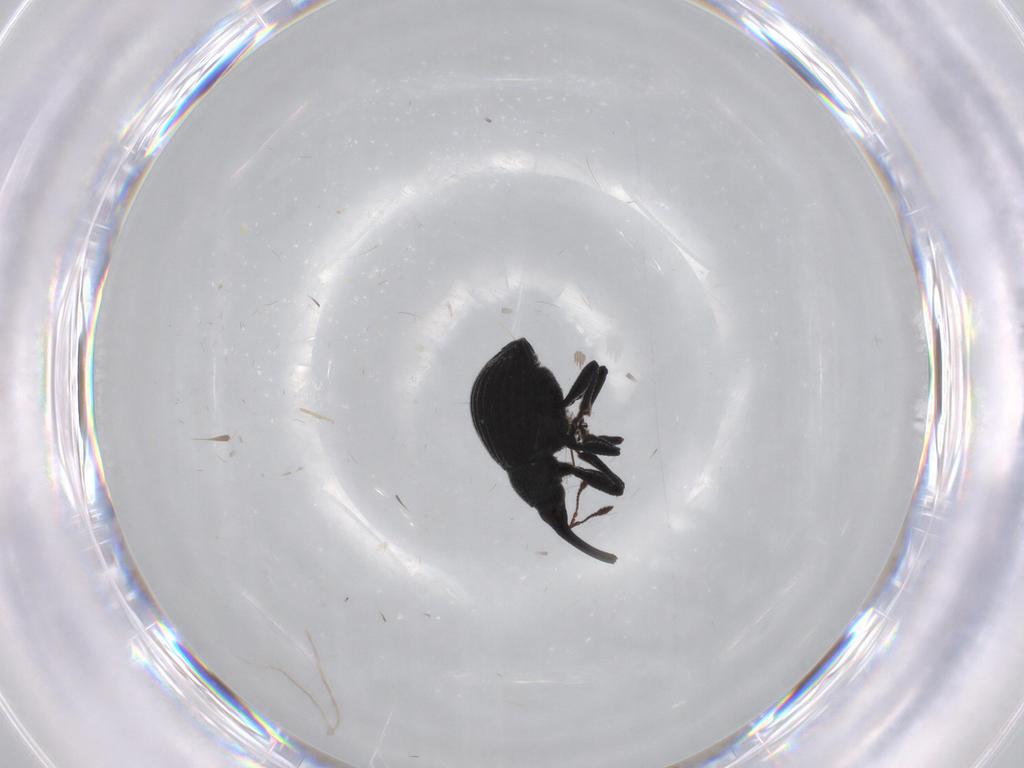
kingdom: Animalia
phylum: Arthropoda
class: Insecta
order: Coleoptera
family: Brentidae
